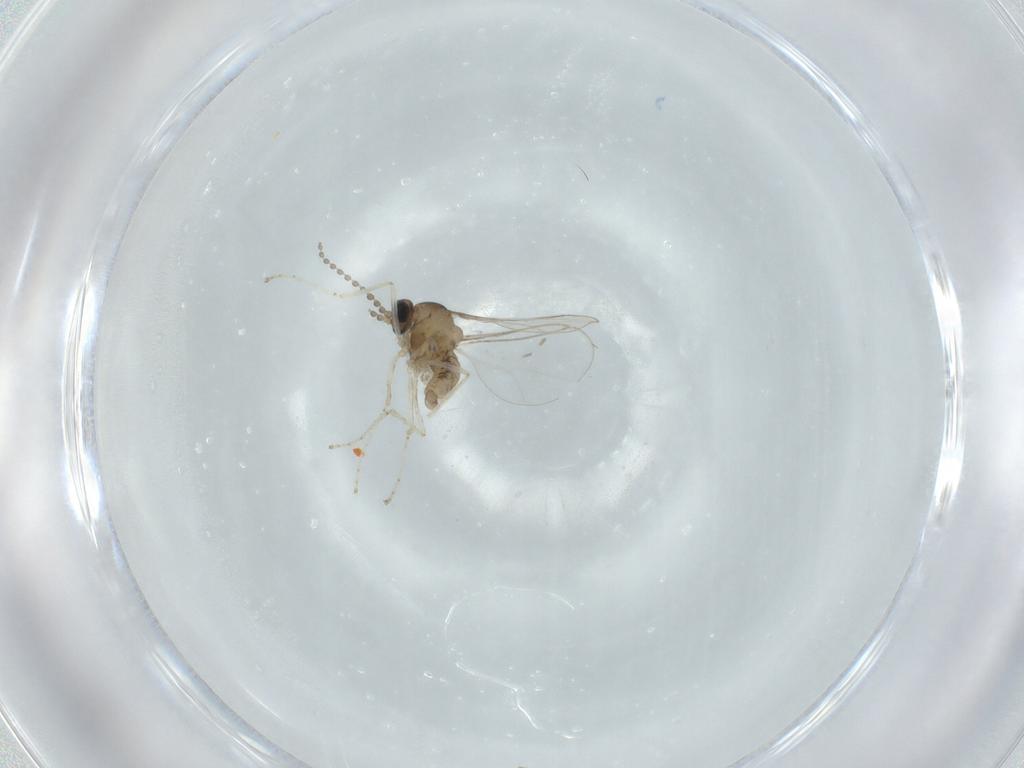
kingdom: Animalia
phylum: Arthropoda
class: Insecta
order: Diptera
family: Cecidomyiidae
